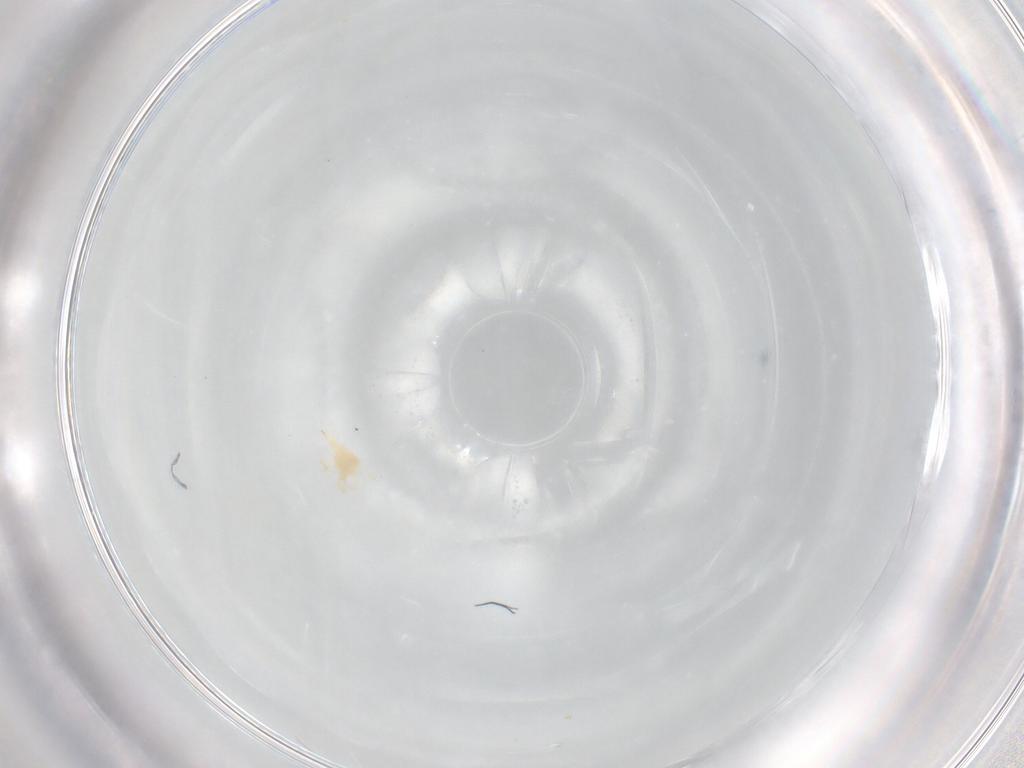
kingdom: Animalia
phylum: Arthropoda
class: Arachnida
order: Trombidiformes
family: Bdellidae
